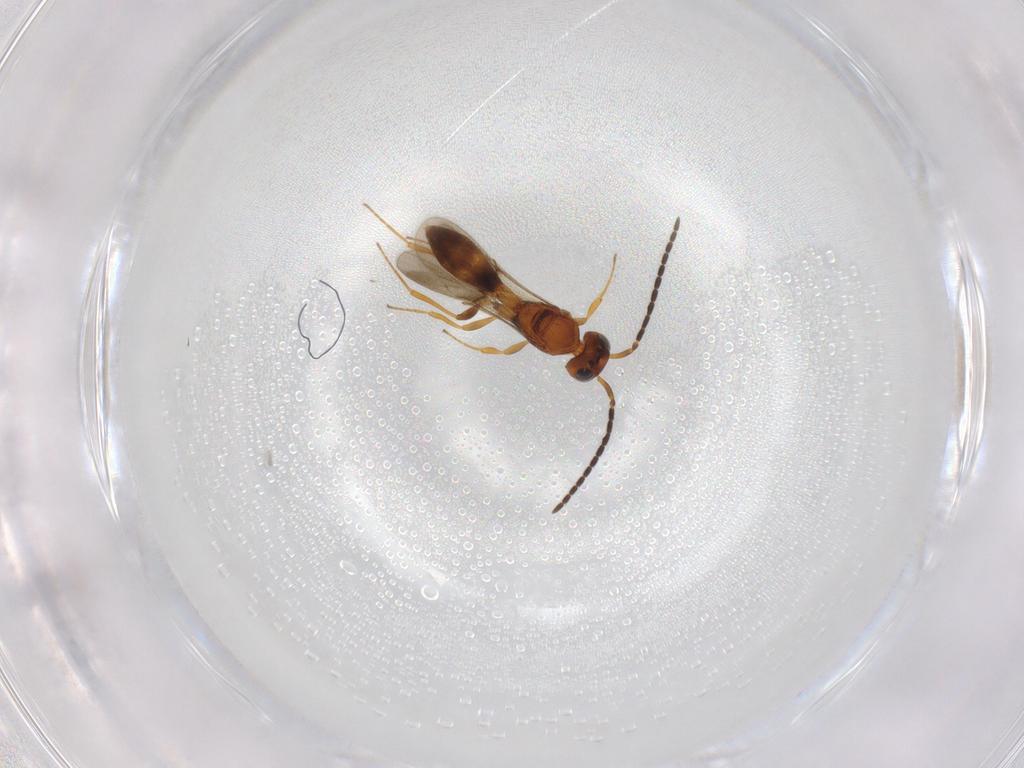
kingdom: Animalia
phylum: Arthropoda
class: Insecta
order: Hymenoptera
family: Scelionidae
